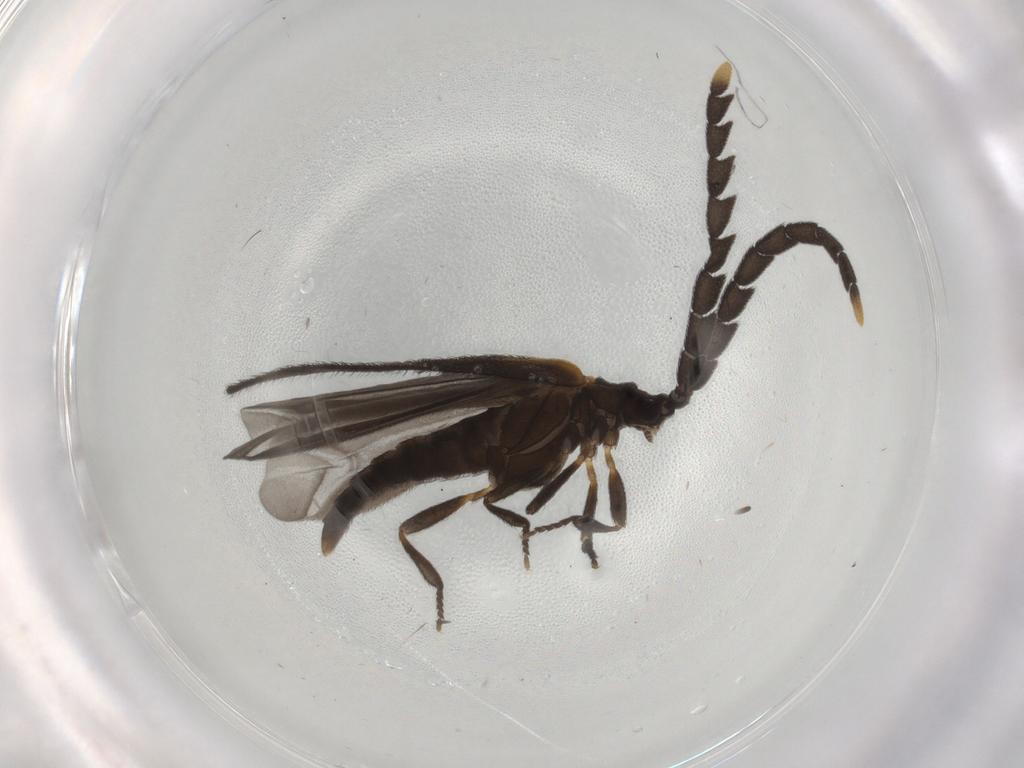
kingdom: Animalia
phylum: Arthropoda
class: Insecta
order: Coleoptera
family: Lycidae
